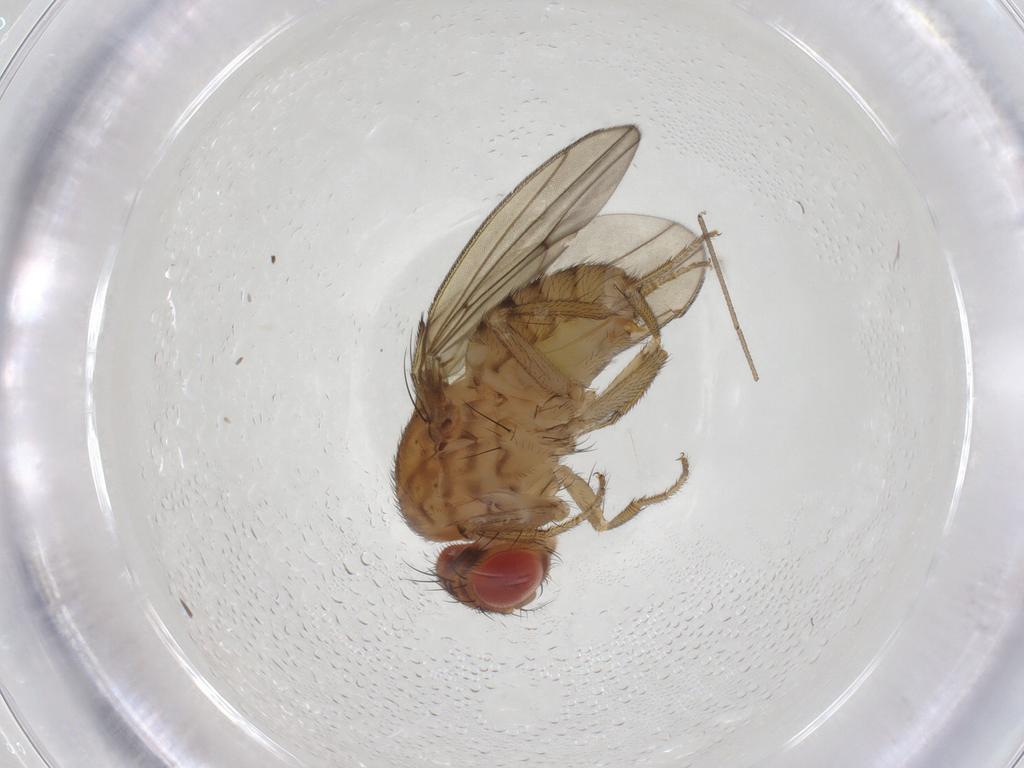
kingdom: Animalia
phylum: Arthropoda
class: Insecta
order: Diptera
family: Drosophilidae
